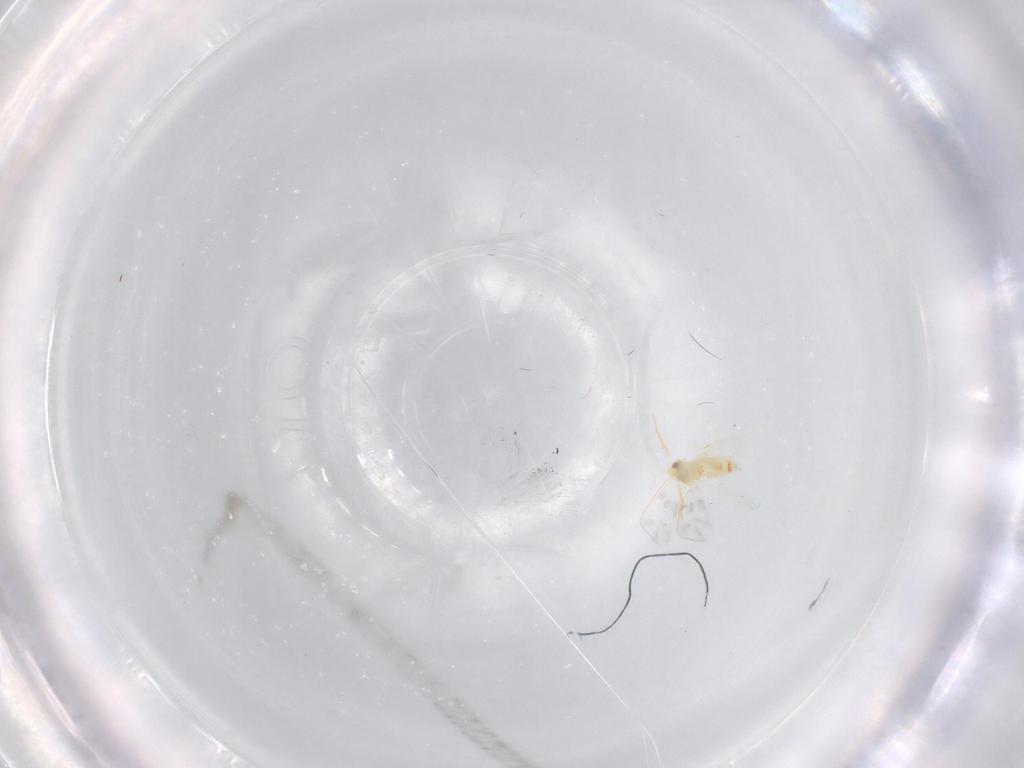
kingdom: Animalia
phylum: Arthropoda
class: Insecta
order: Hemiptera
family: Aleyrodidae
